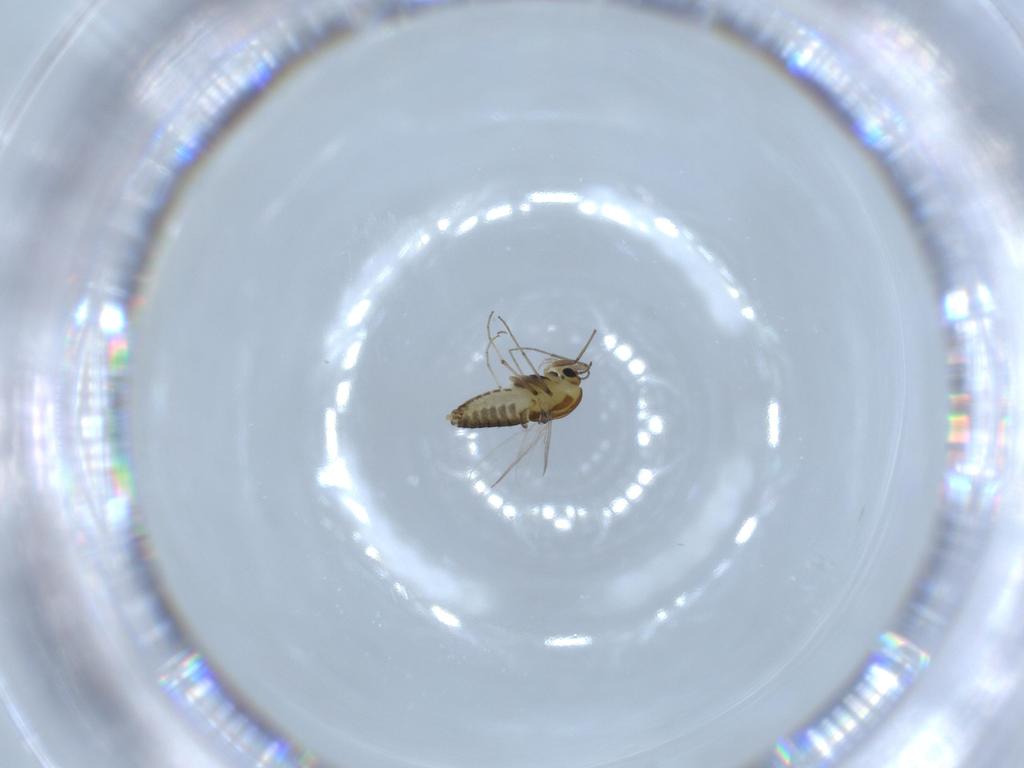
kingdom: Animalia
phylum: Arthropoda
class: Insecta
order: Diptera
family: Chironomidae
